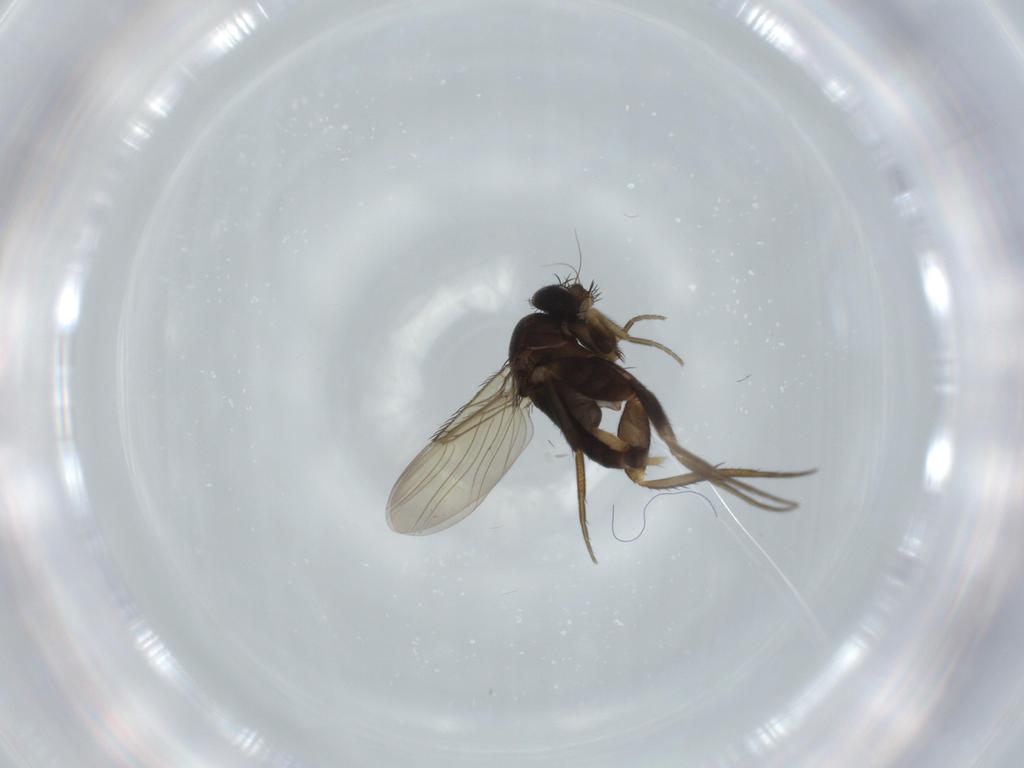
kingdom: Animalia
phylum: Arthropoda
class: Insecta
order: Diptera
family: Phoridae
